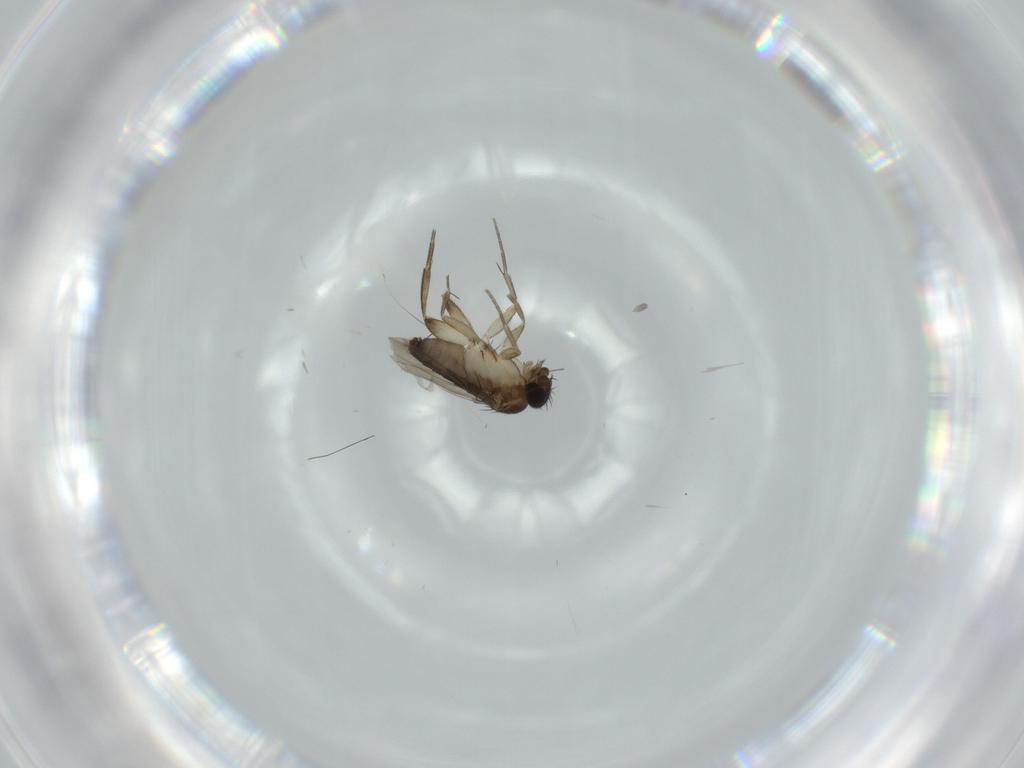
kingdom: Animalia
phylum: Arthropoda
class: Insecta
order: Diptera
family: Phoridae
